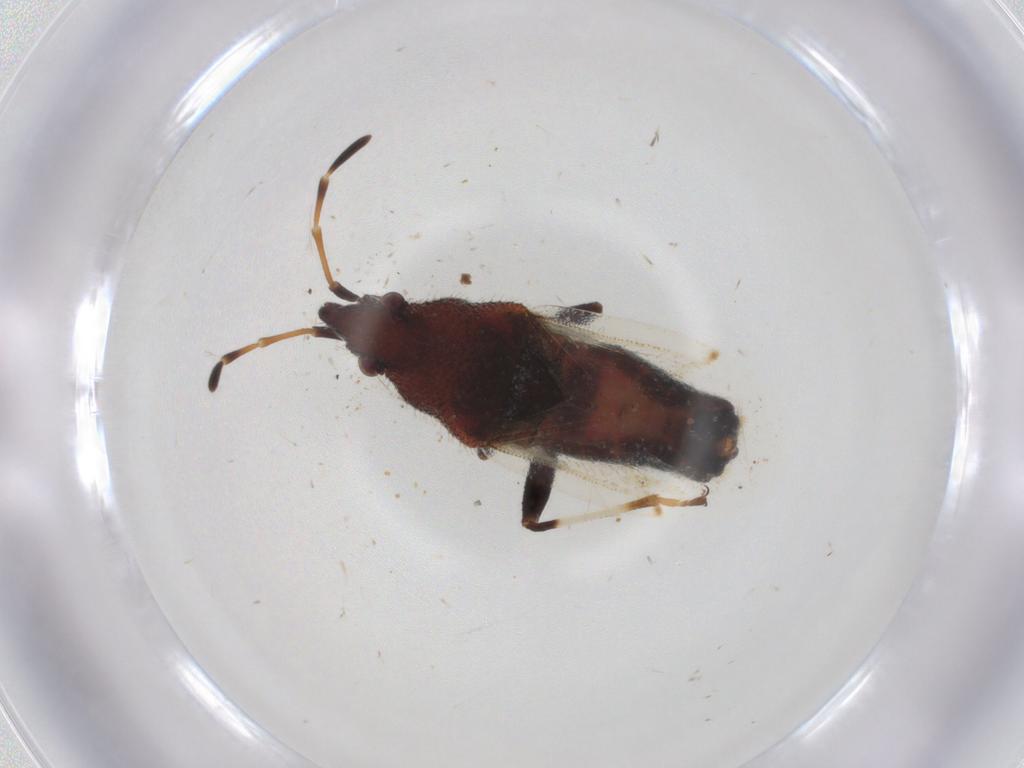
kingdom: Animalia
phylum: Arthropoda
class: Insecta
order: Hemiptera
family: Oxycarenidae
